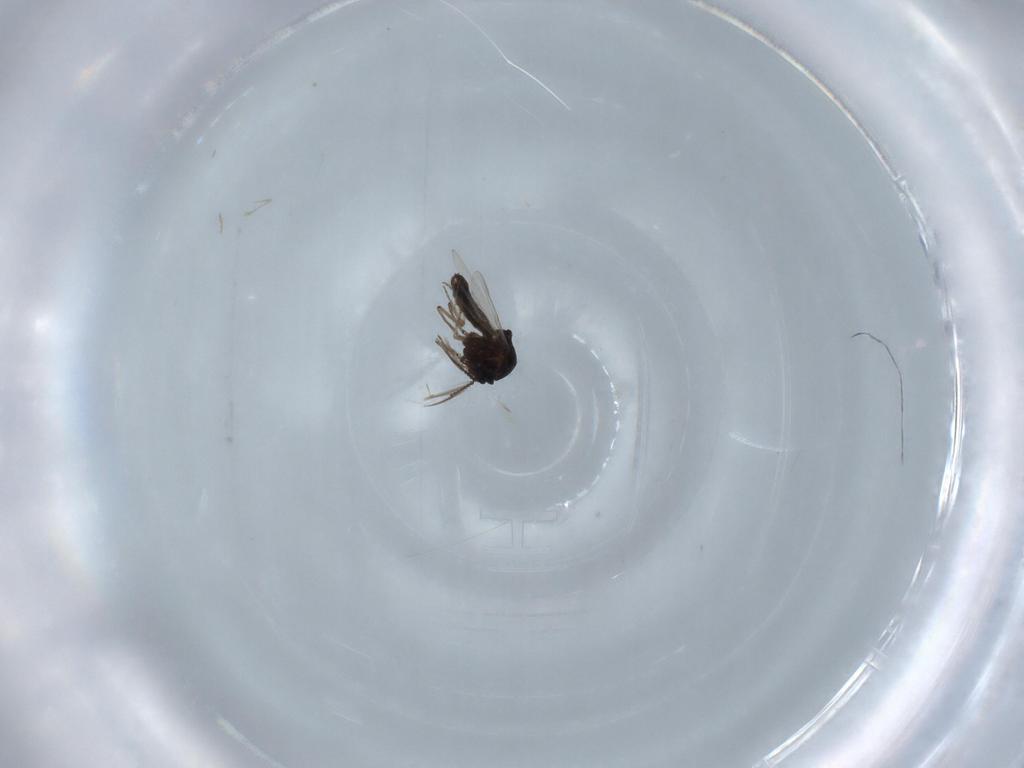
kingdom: Animalia
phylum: Arthropoda
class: Insecta
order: Diptera
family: Ceratopogonidae
